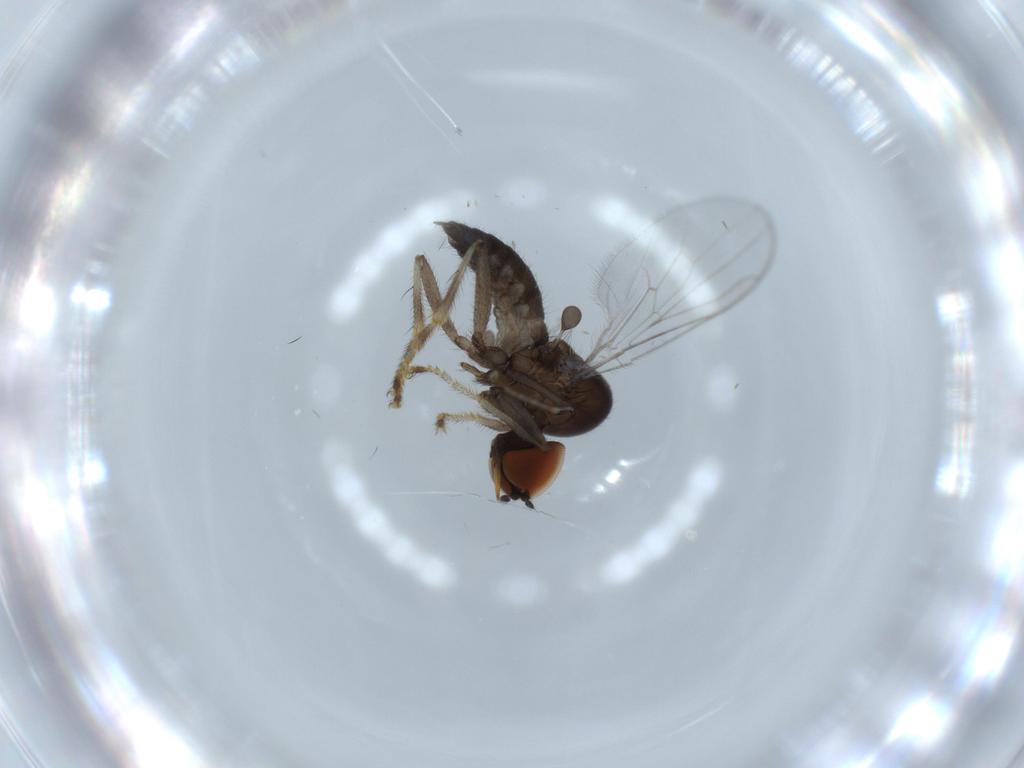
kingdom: Animalia
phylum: Arthropoda
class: Insecta
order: Diptera
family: Hybotidae
